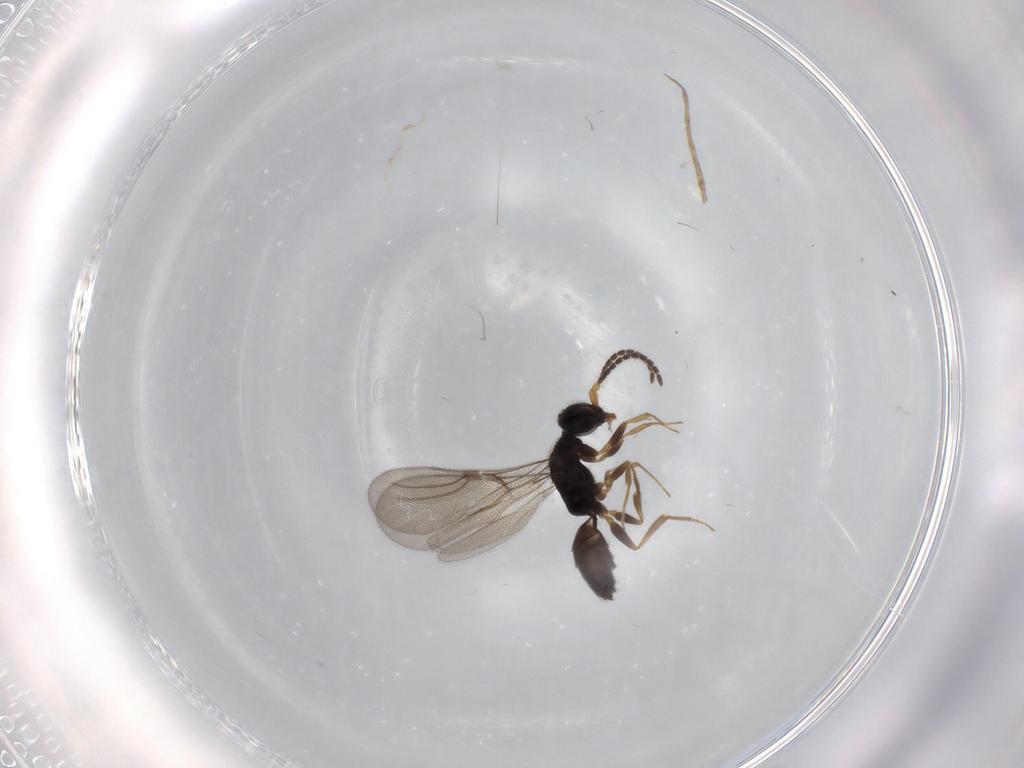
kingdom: Animalia
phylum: Arthropoda
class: Insecta
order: Hymenoptera
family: Bethylidae
